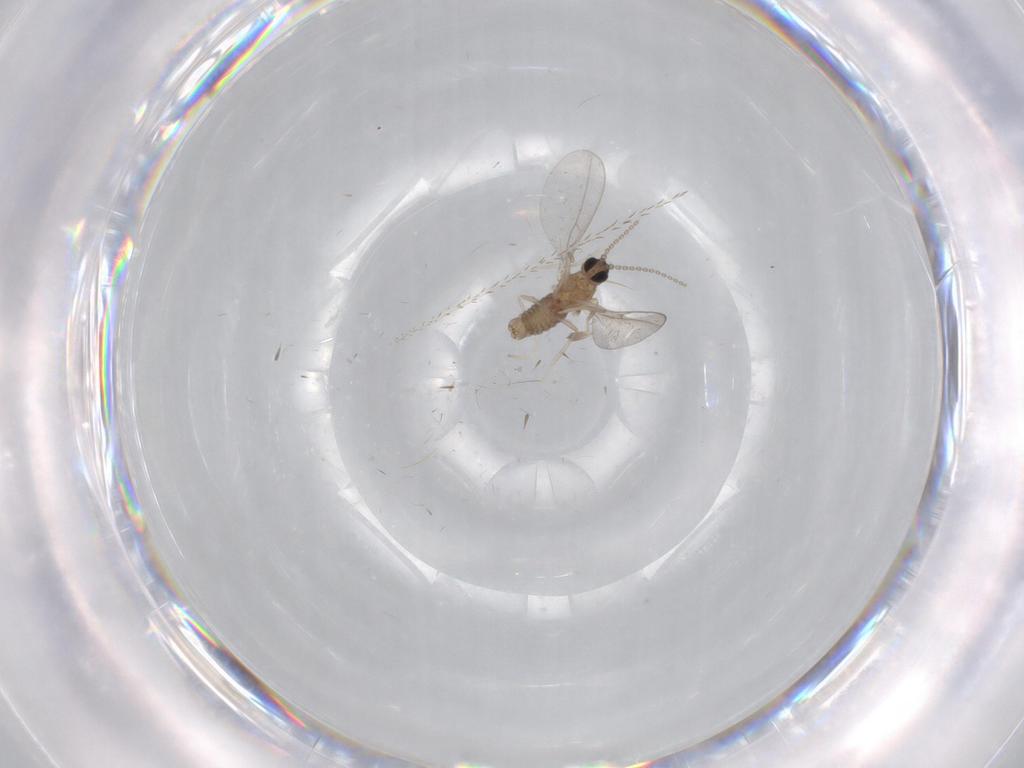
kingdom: Animalia
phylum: Arthropoda
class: Insecta
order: Diptera
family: Cecidomyiidae
